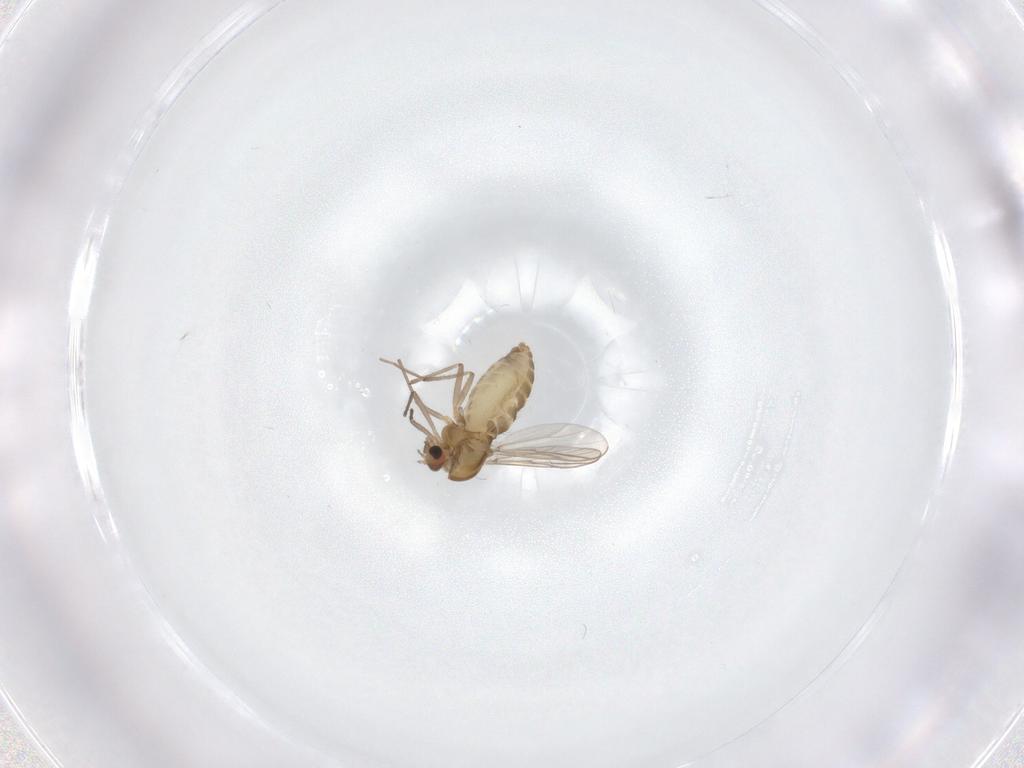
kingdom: Animalia
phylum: Arthropoda
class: Insecta
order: Diptera
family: Chironomidae
